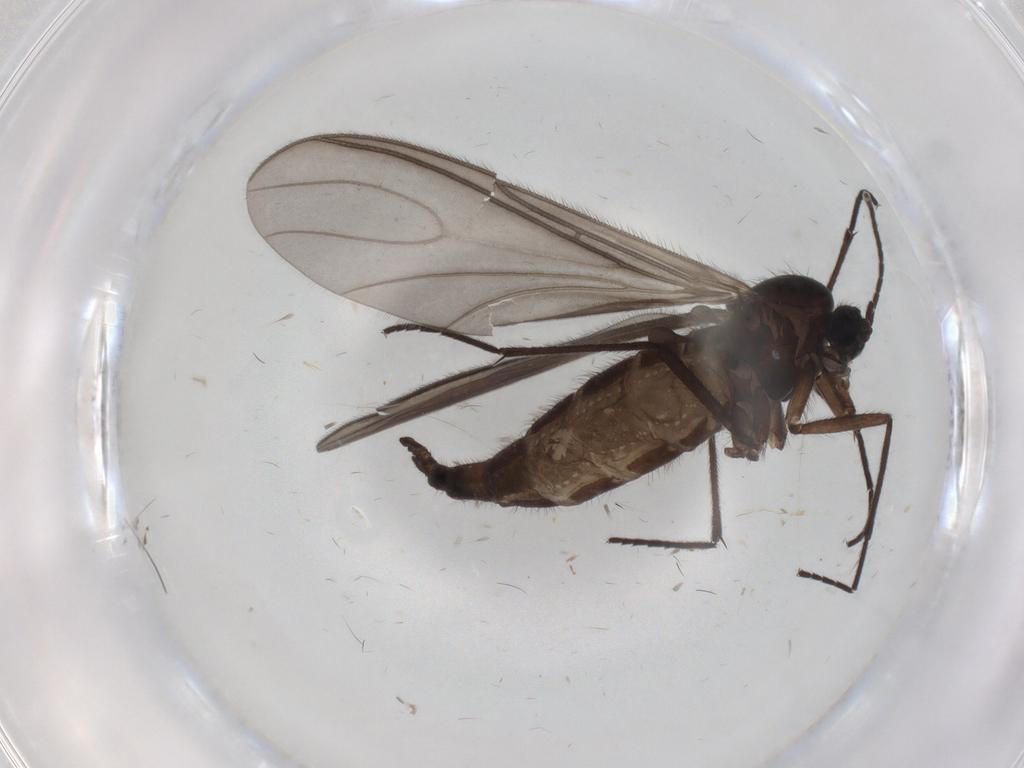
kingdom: Animalia
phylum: Arthropoda
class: Insecta
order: Diptera
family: Sciaridae
